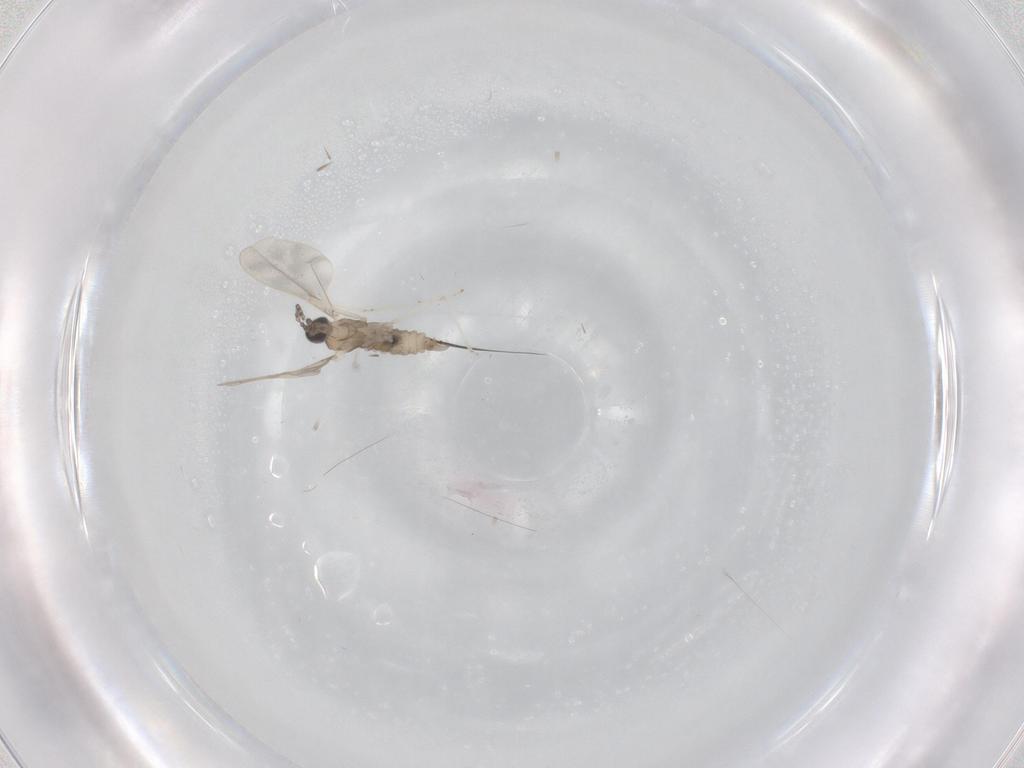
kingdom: Animalia
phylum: Arthropoda
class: Insecta
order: Diptera
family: Cecidomyiidae
